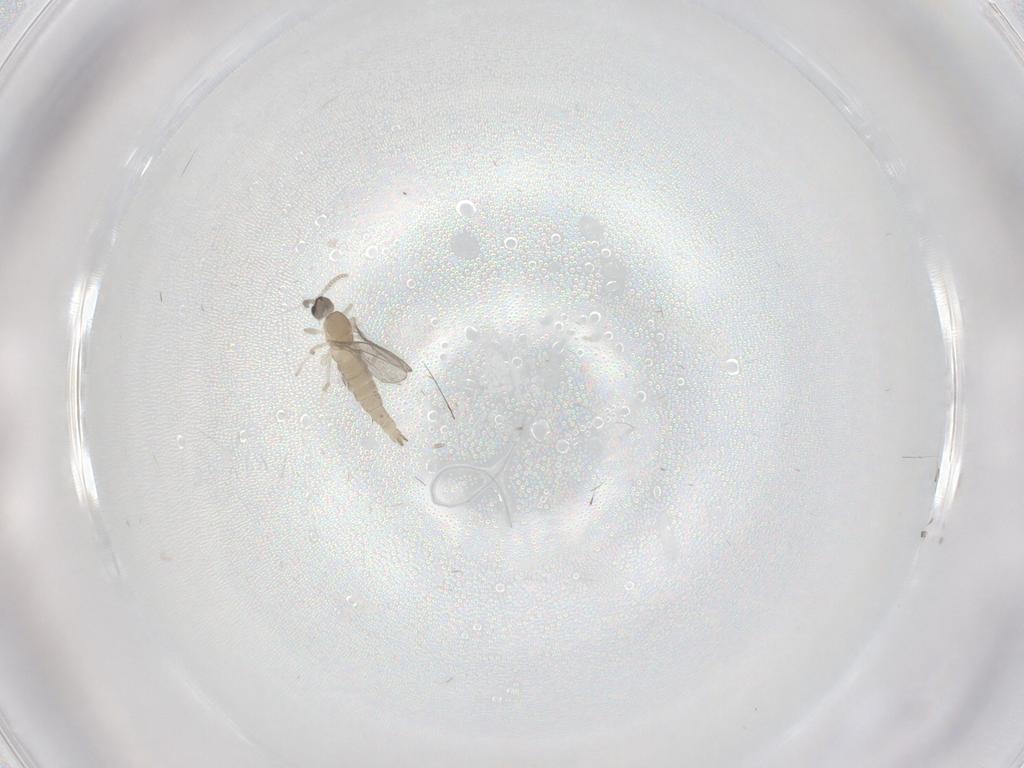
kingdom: Animalia
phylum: Arthropoda
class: Insecta
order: Diptera
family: Cecidomyiidae
